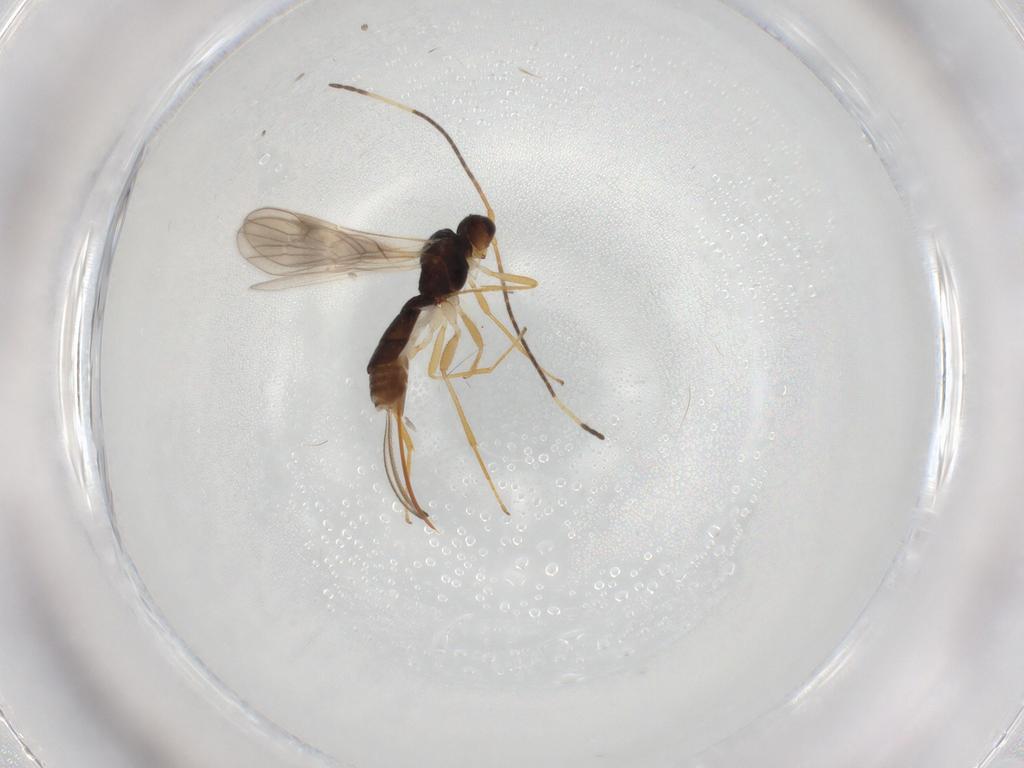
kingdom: Animalia
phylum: Arthropoda
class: Insecta
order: Hymenoptera
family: Braconidae
